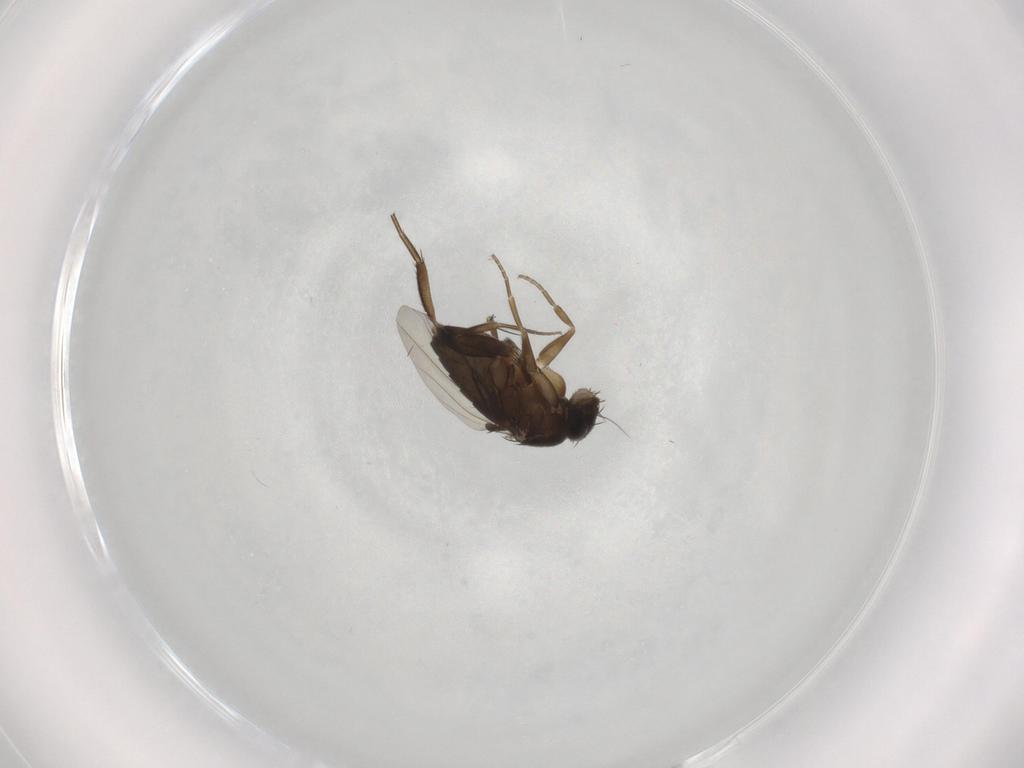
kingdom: Animalia
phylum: Arthropoda
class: Insecta
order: Diptera
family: Phoridae
